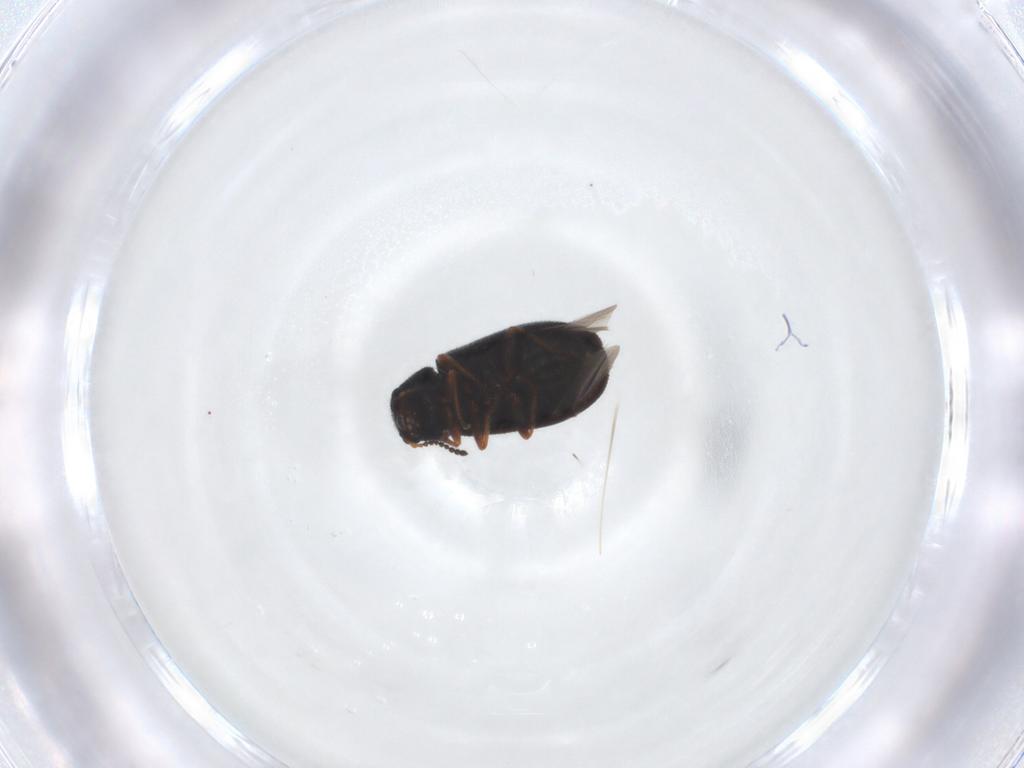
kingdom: Animalia
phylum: Arthropoda
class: Insecta
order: Coleoptera
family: Melyridae
